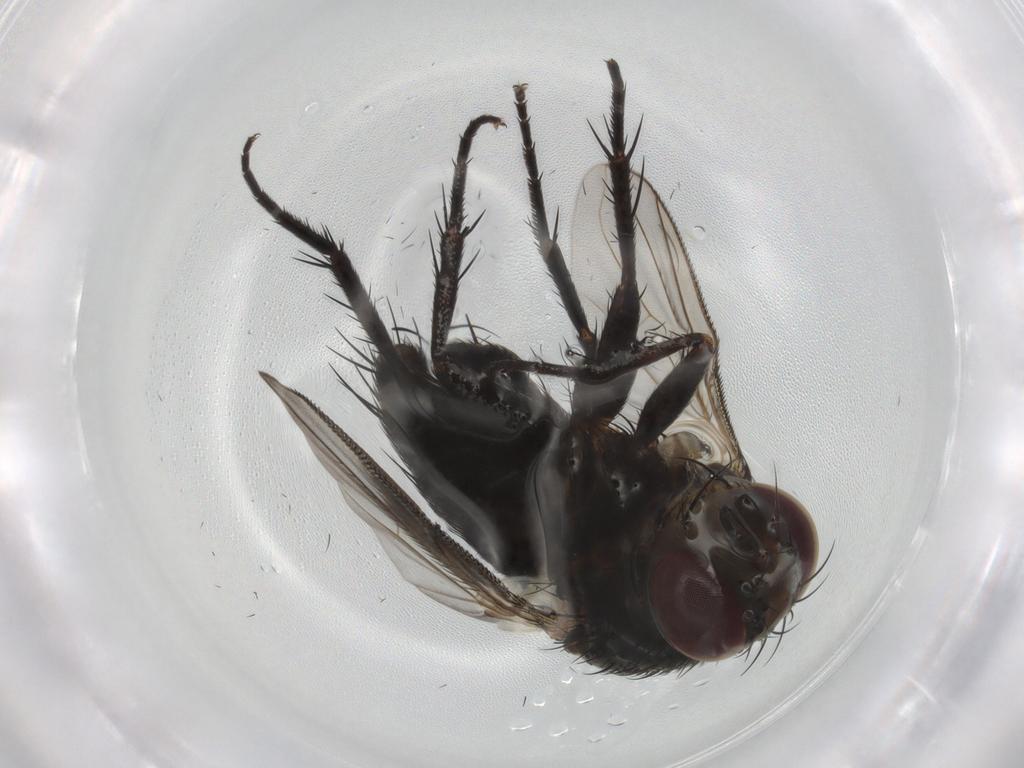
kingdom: Animalia
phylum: Arthropoda
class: Insecta
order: Diptera
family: Tachinidae
